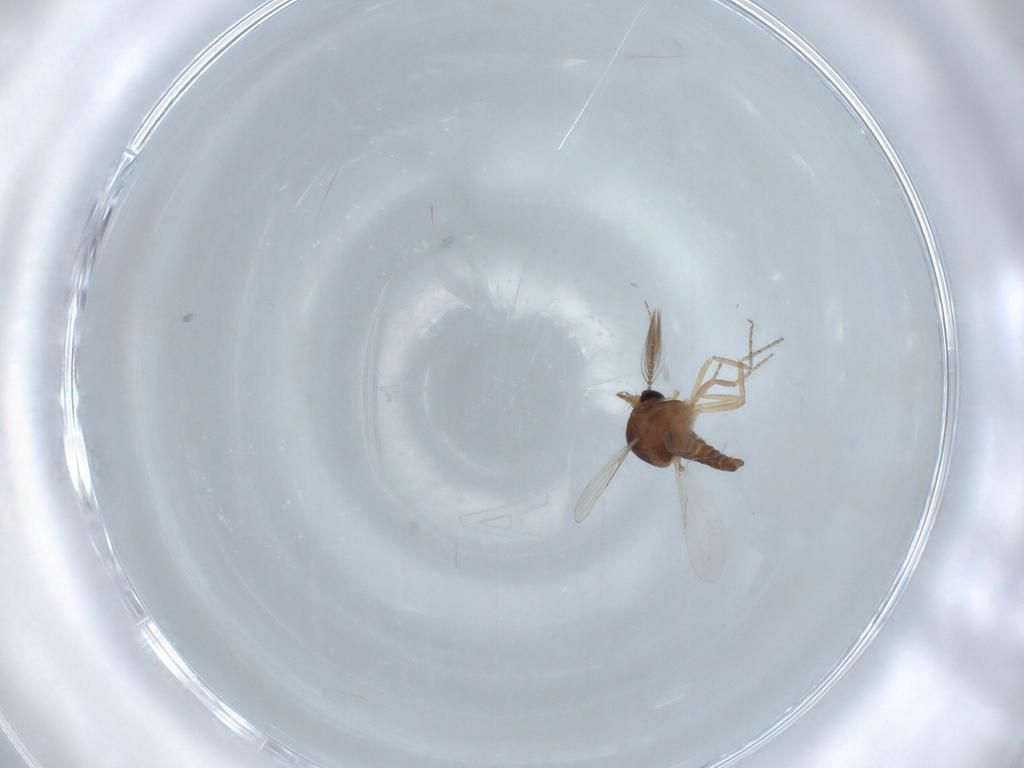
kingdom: Animalia
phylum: Arthropoda
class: Insecta
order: Diptera
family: Ceratopogonidae
